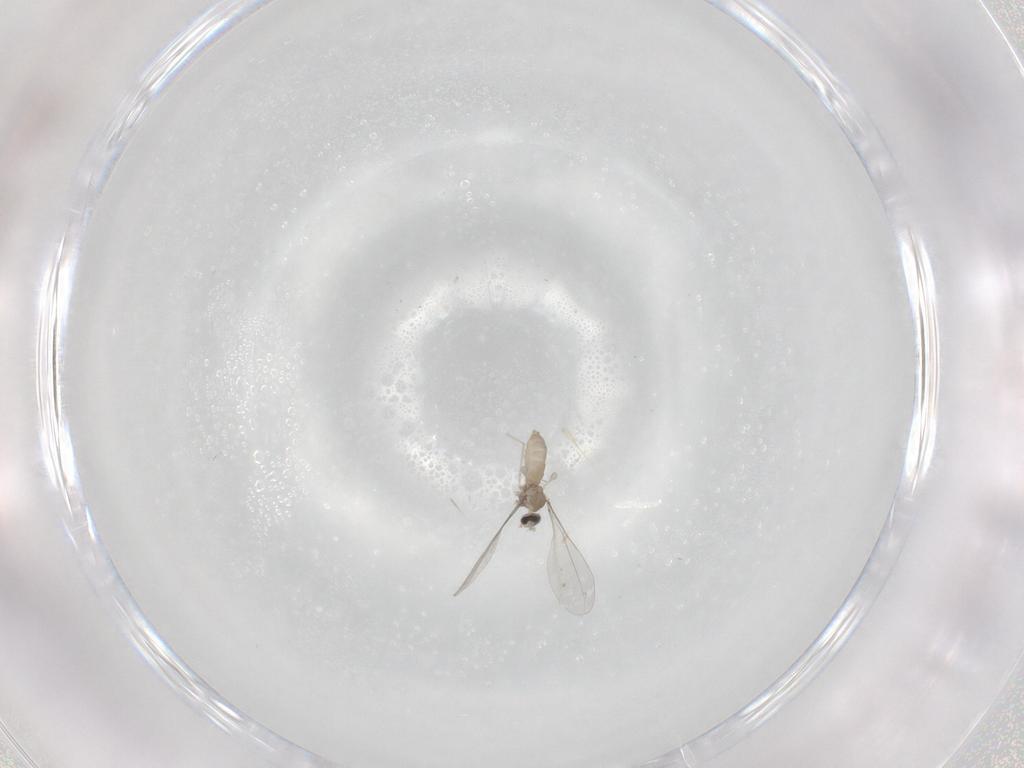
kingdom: Animalia
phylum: Arthropoda
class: Insecta
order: Diptera
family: Cecidomyiidae
